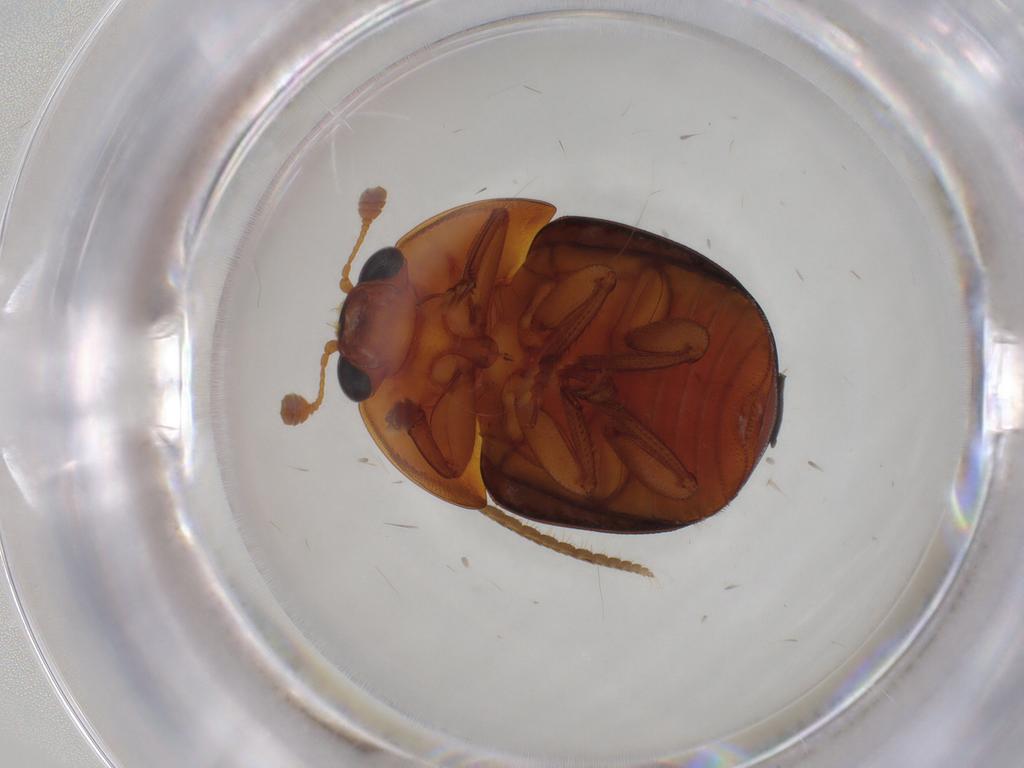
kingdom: Animalia
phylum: Arthropoda
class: Insecta
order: Coleoptera
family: Nitidulidae
